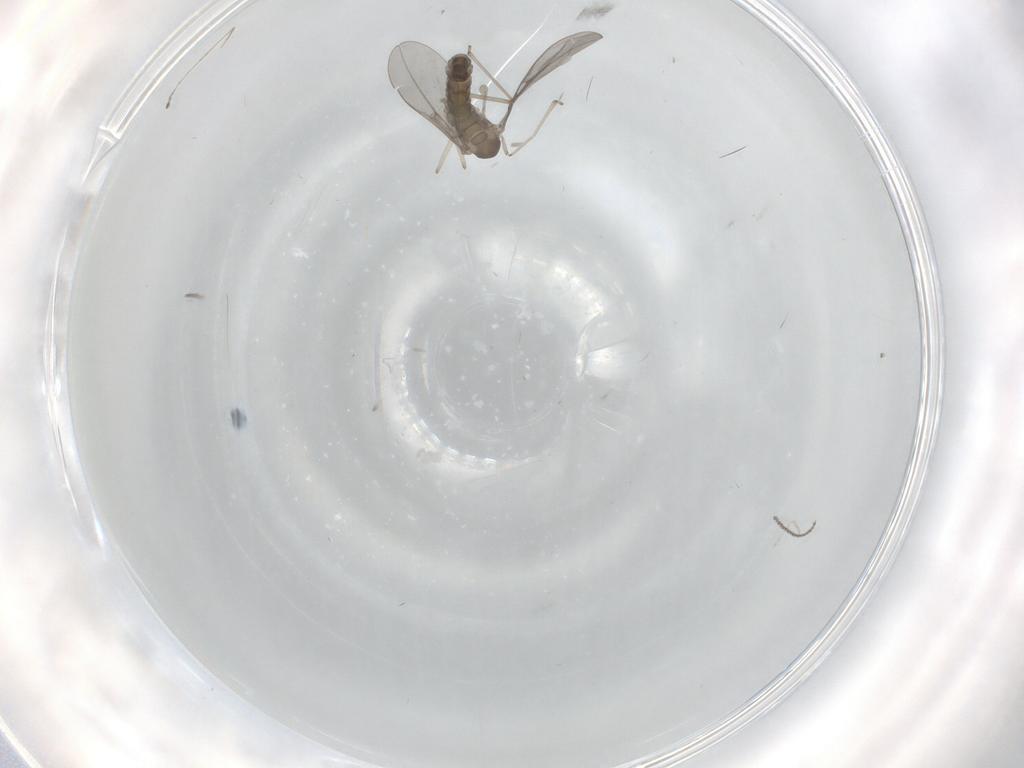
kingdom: Animalia
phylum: Arthropoda
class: Insecta
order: Diptera
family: Cecidomyiidae
